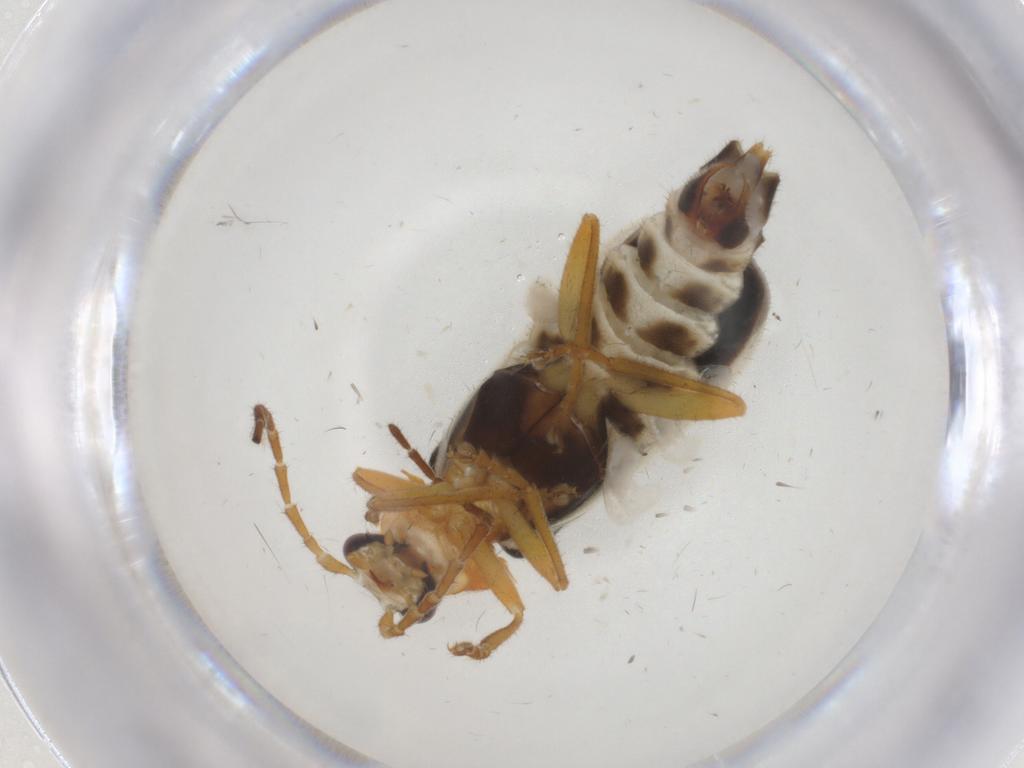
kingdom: Animalia
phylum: Arthropoda
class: Insecta
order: Coleoptera
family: Cantharidae
